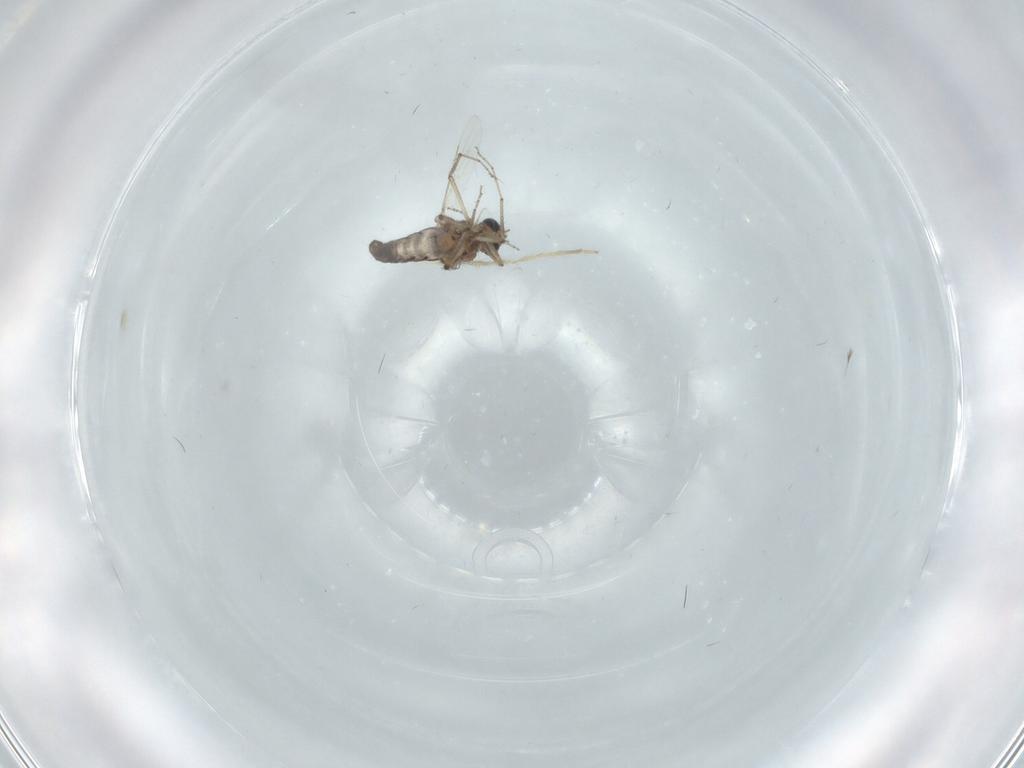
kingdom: Animalia
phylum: Arthropoda
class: Insecta
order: Diptera
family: Ceratopogonidae
